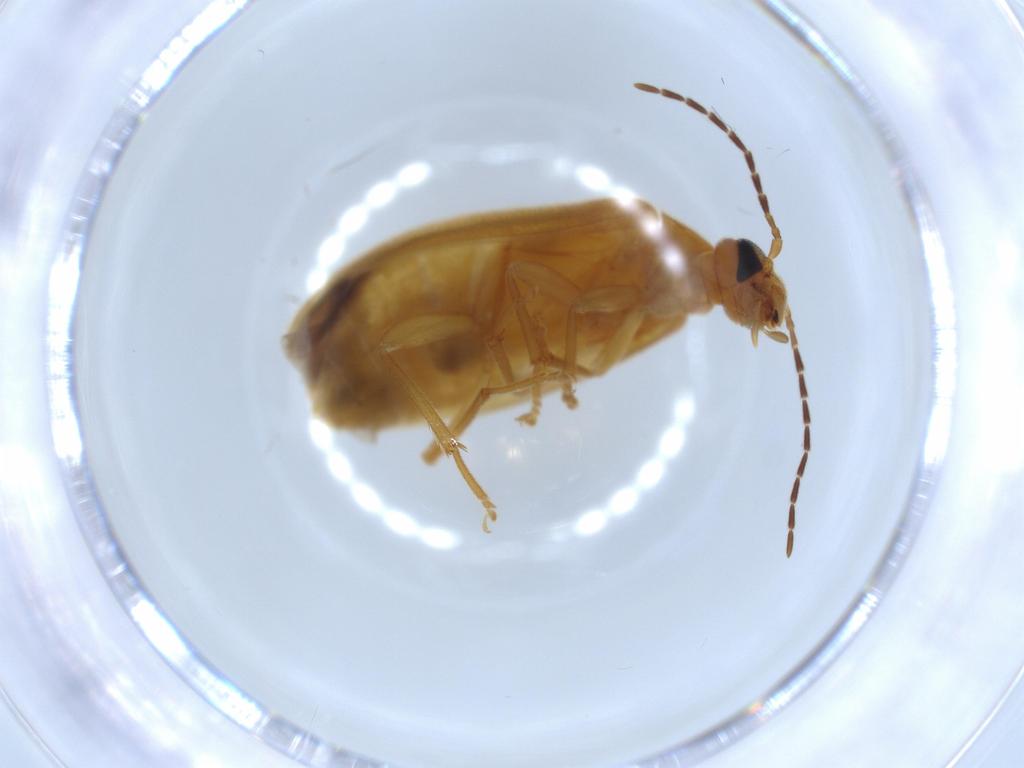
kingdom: Animalia
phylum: Arthropoda
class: Insecta
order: Coleoptera
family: Scraptiidae
